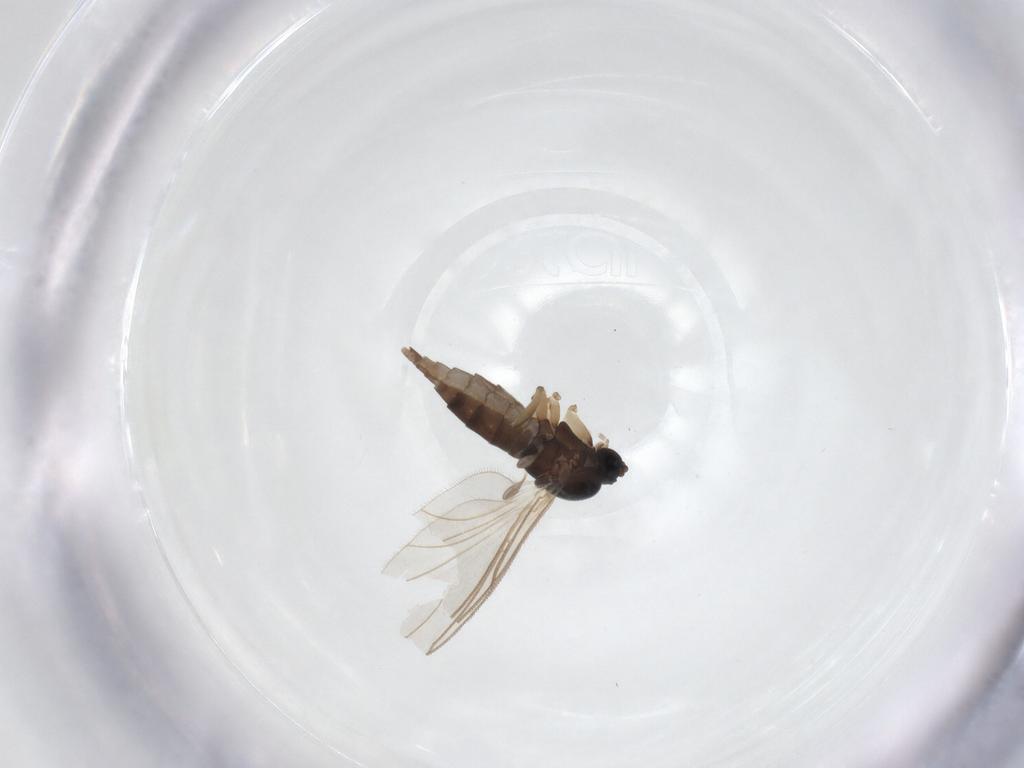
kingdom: Animalia
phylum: Arthropoda
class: Insecta
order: Diptera
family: Sciaridae
